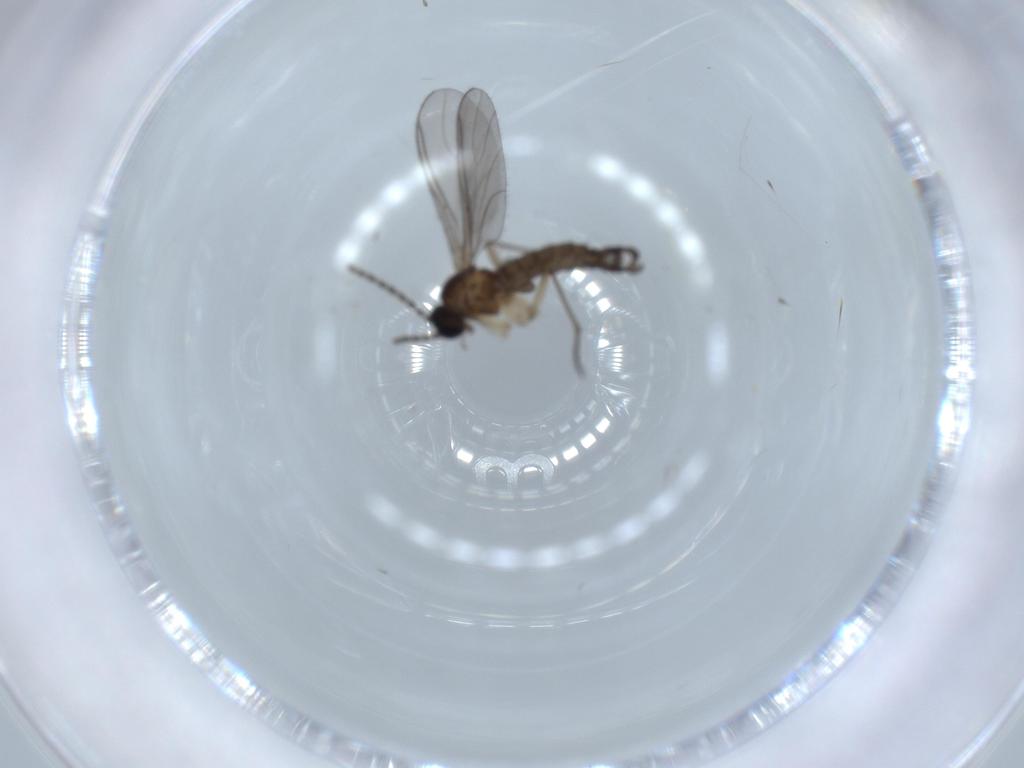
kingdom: Animalia
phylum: Arthropoda
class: Insecta
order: Diptera
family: Sciaridae
